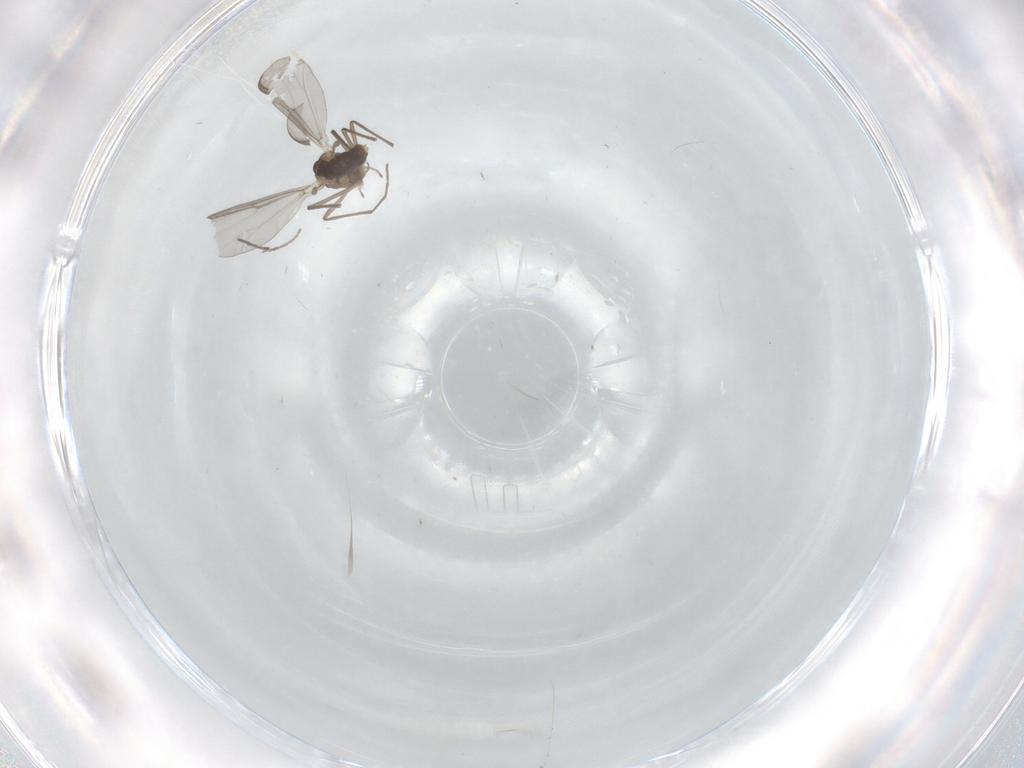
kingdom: Animalia
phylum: Arthropoda
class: Insecta
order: Diptera
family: Chironomidae
